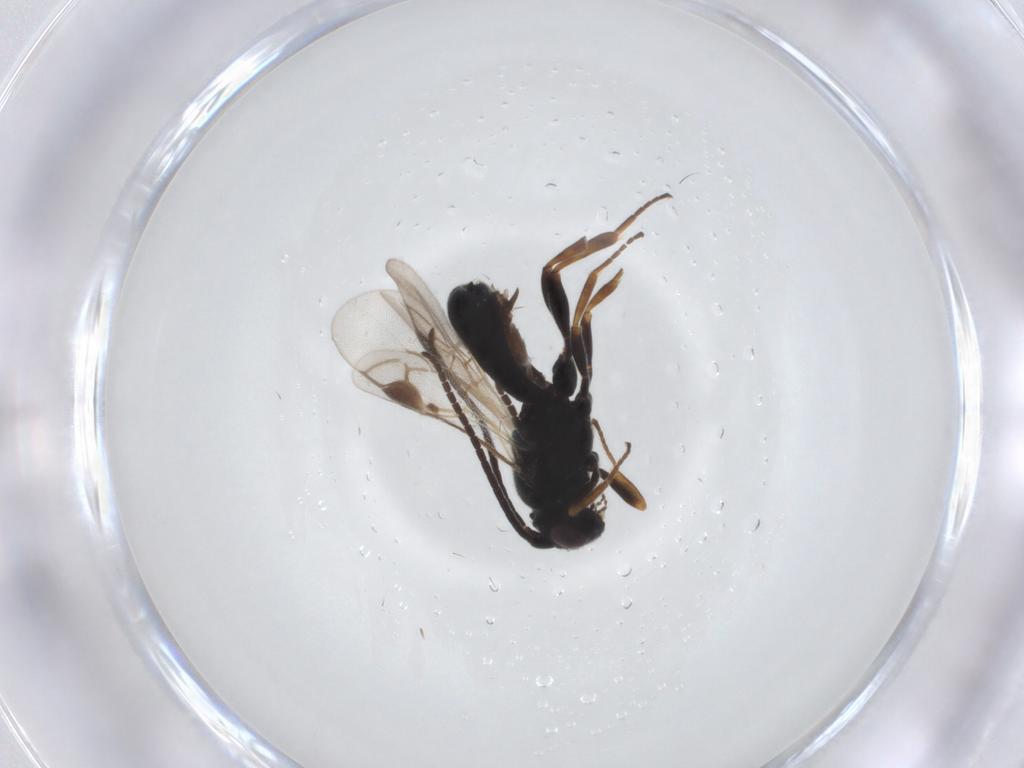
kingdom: Animalia
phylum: Arthropoda
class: Insecta
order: Hymenoptera
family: Braconidae
